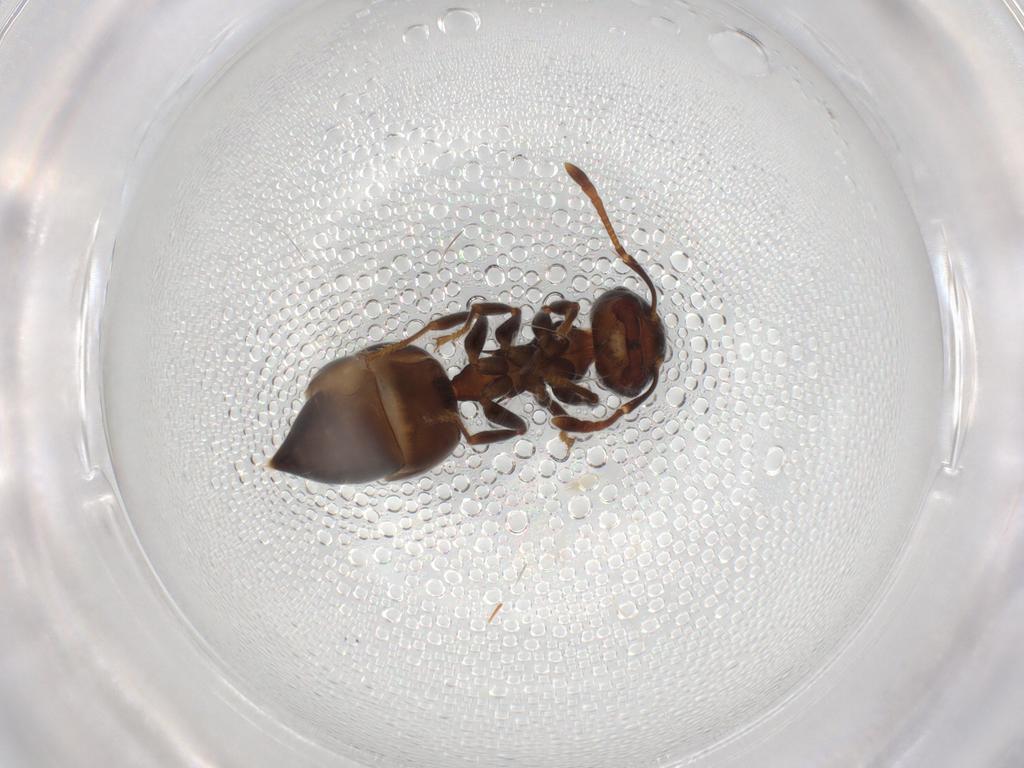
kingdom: Animalia
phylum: Arthropoda
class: Insecta
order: Hymenoptera
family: Formicidae
